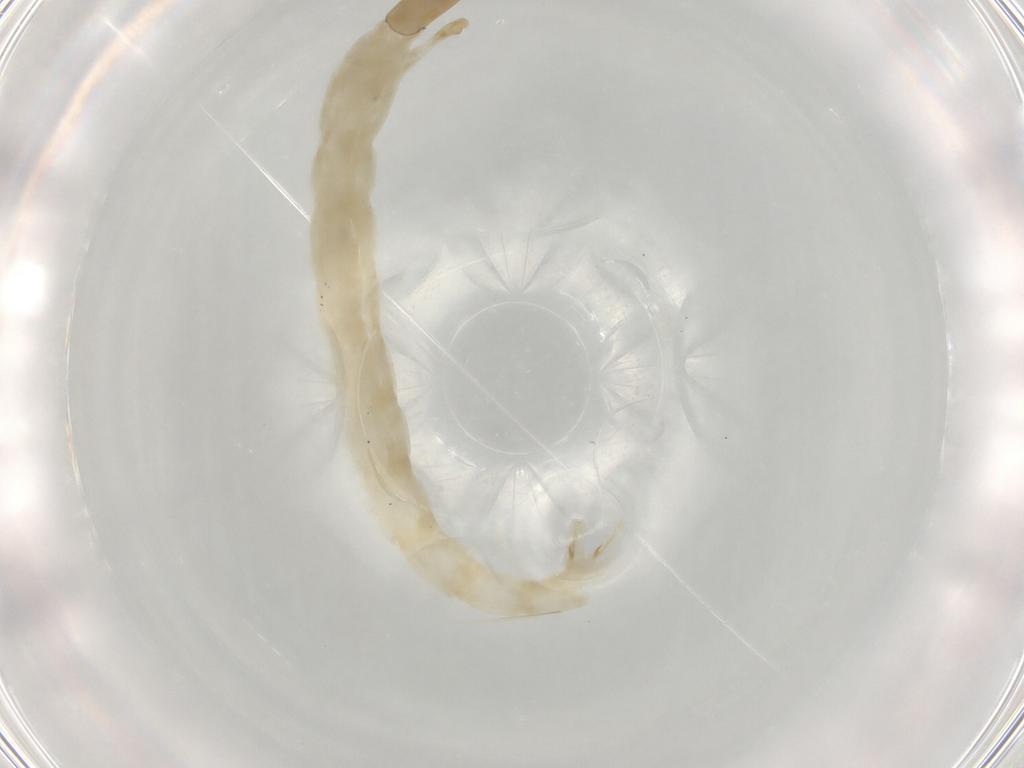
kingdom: Animalia
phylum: Arthropoda
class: Insecta
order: Diptera
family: Chironomidae
